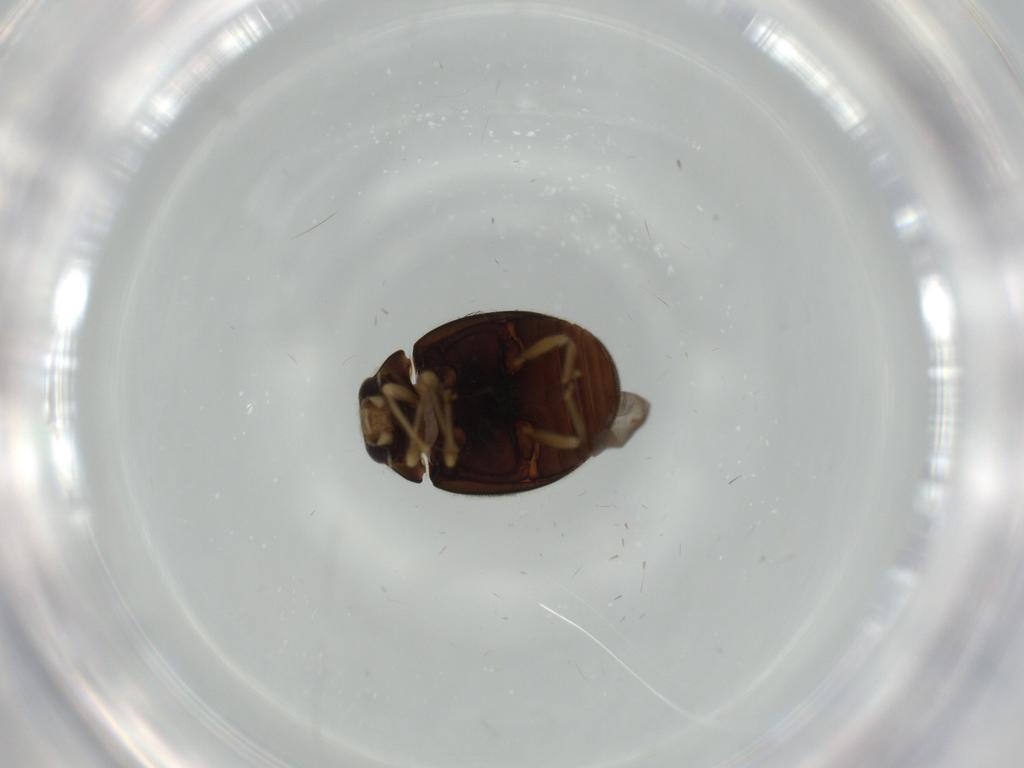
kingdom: Animalia
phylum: Arthropoda
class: Insecta
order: Coleoptera
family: Coccinellidae
